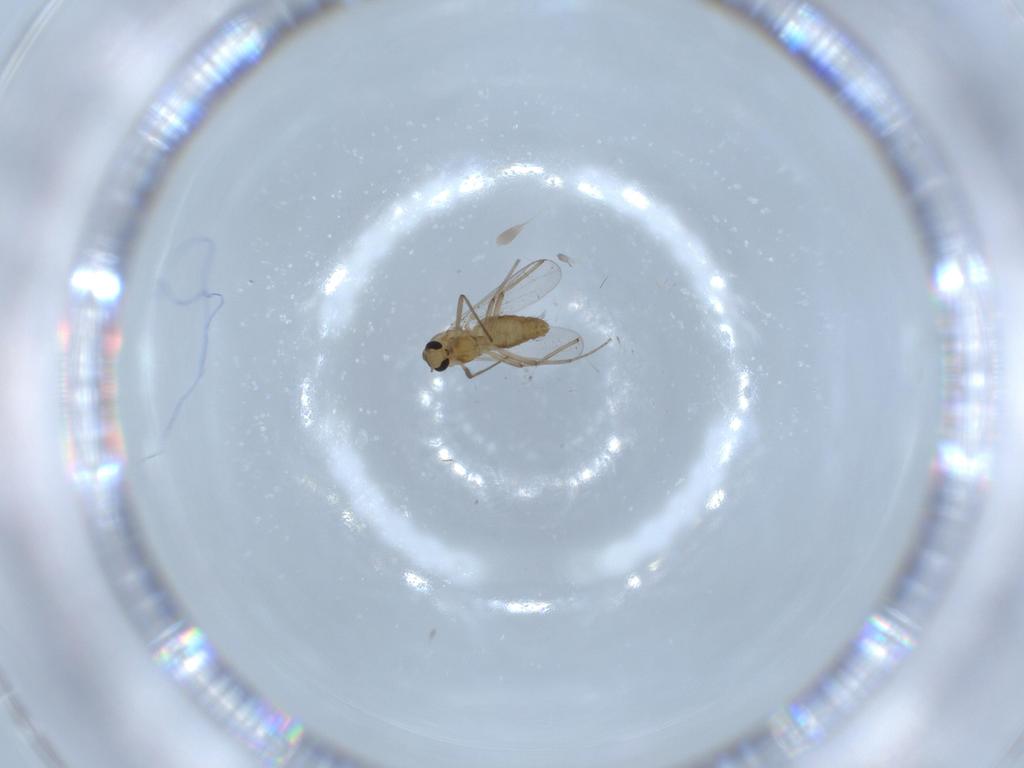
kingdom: Animalia
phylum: Arthropoda
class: Insecta
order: Diptera
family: Chironomidae
